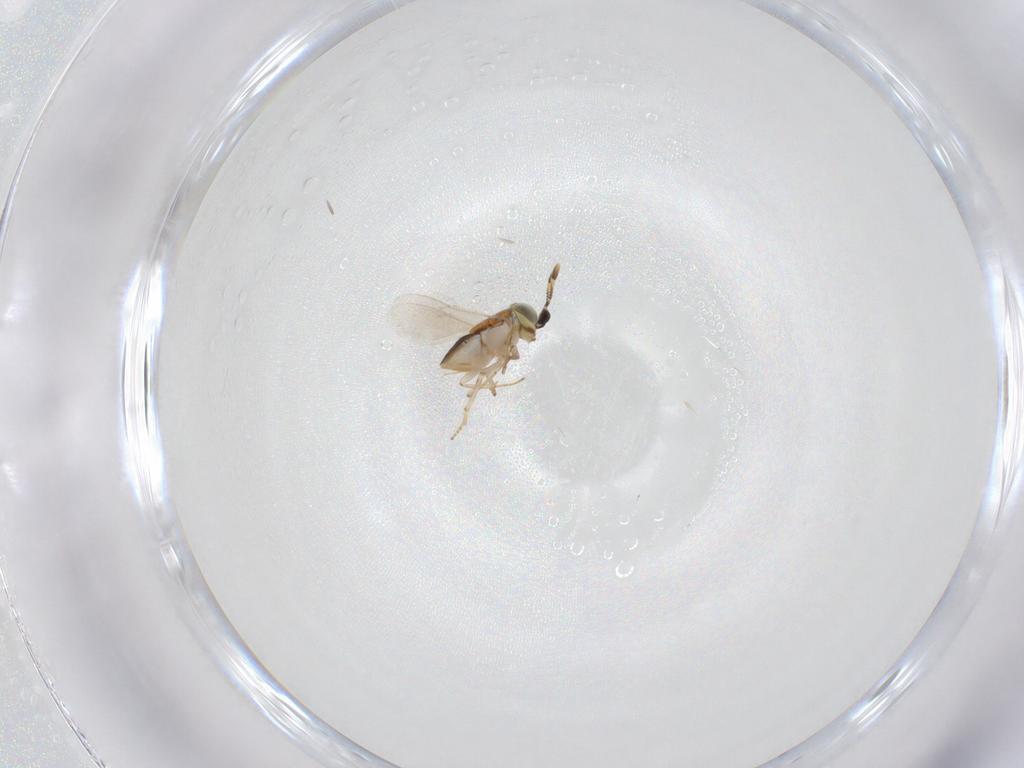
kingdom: Animalia
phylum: Arthropoda
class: Insecta
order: Diptera
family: Agromyzidae
